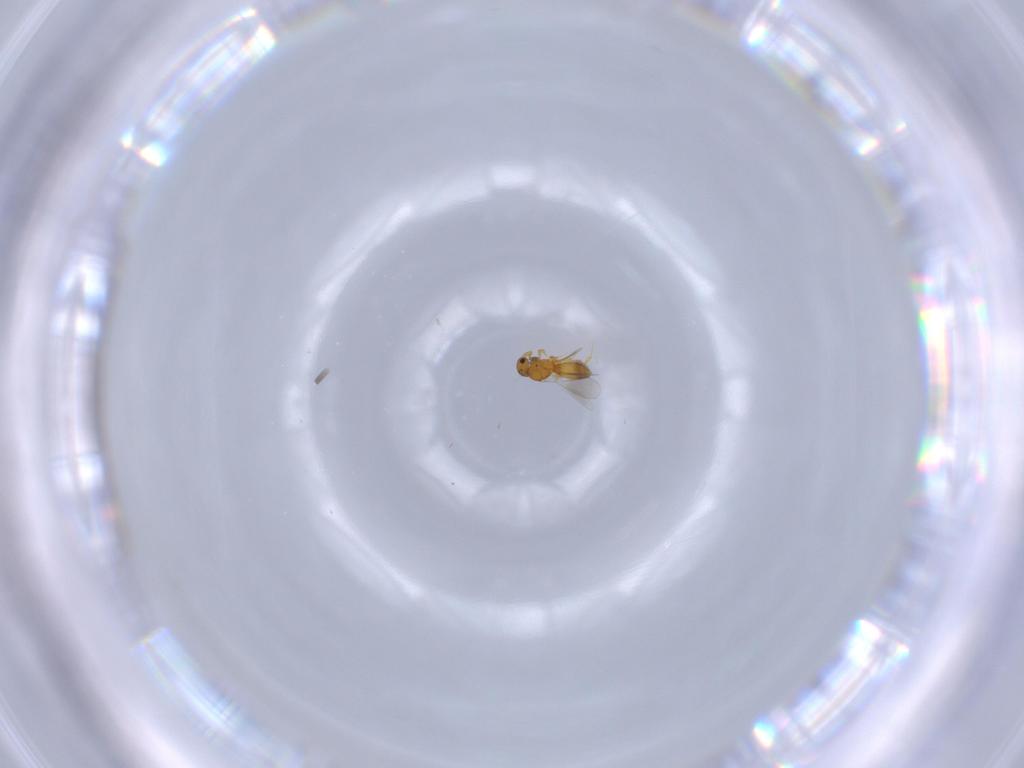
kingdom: Animalia
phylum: Arthropoda
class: Insecta
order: Hymenoptera
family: Platygastridae
